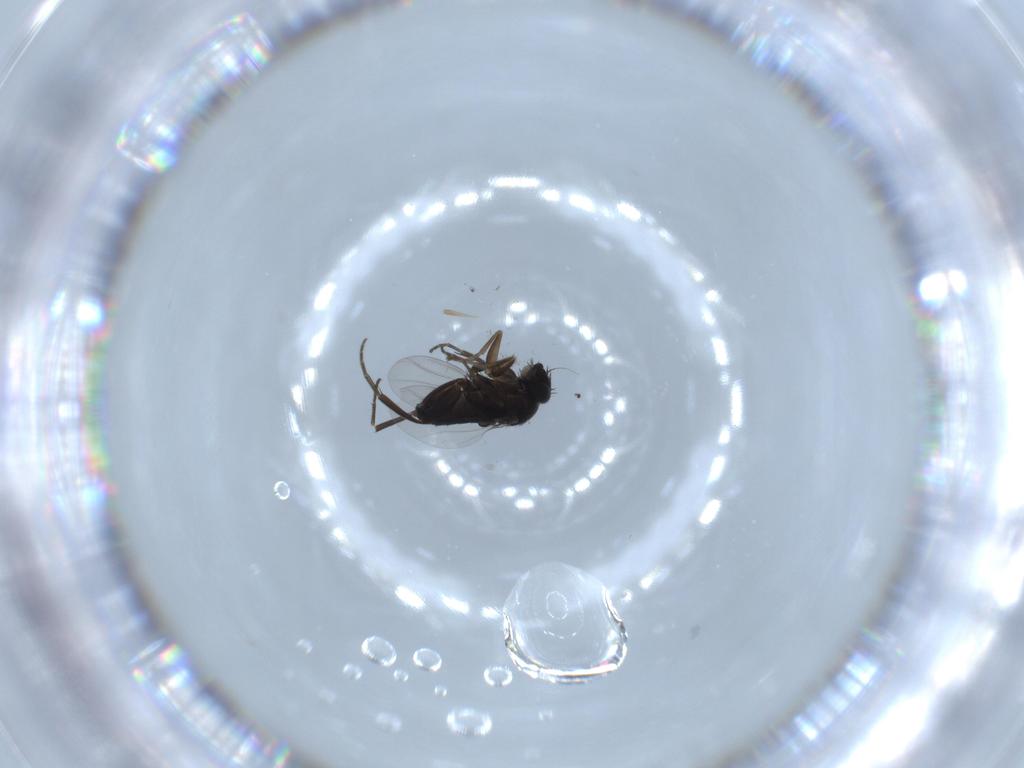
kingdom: Animalia
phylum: Arthropoda
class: Insecta
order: Diptera
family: Phoridae
